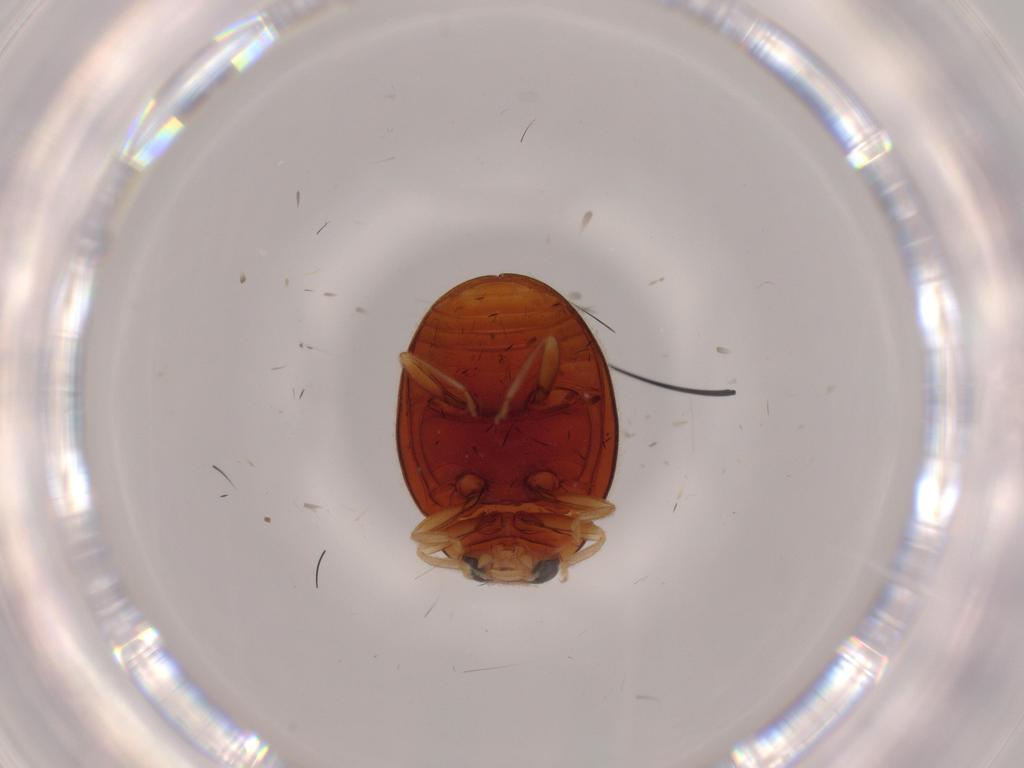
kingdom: Animalia
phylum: Arthropoda
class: Insecta
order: Coleoptera
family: Coccinellidae
